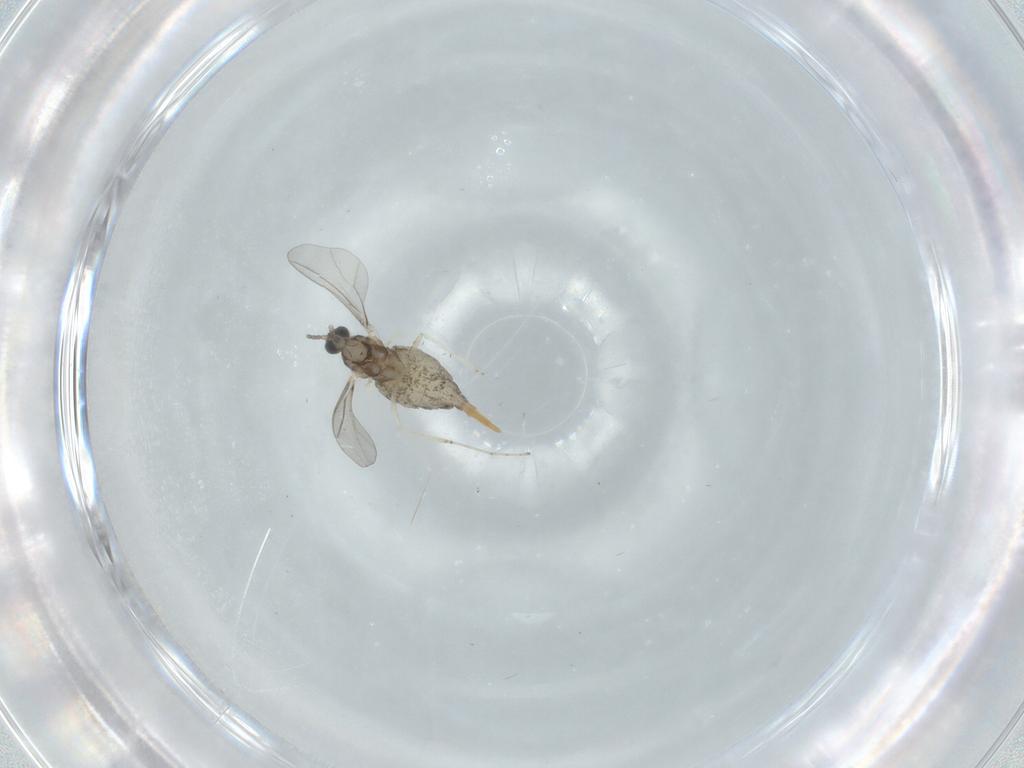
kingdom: Animalia
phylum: Arthropoda
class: Insecta
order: Diptera
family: Cecidomyiidae
